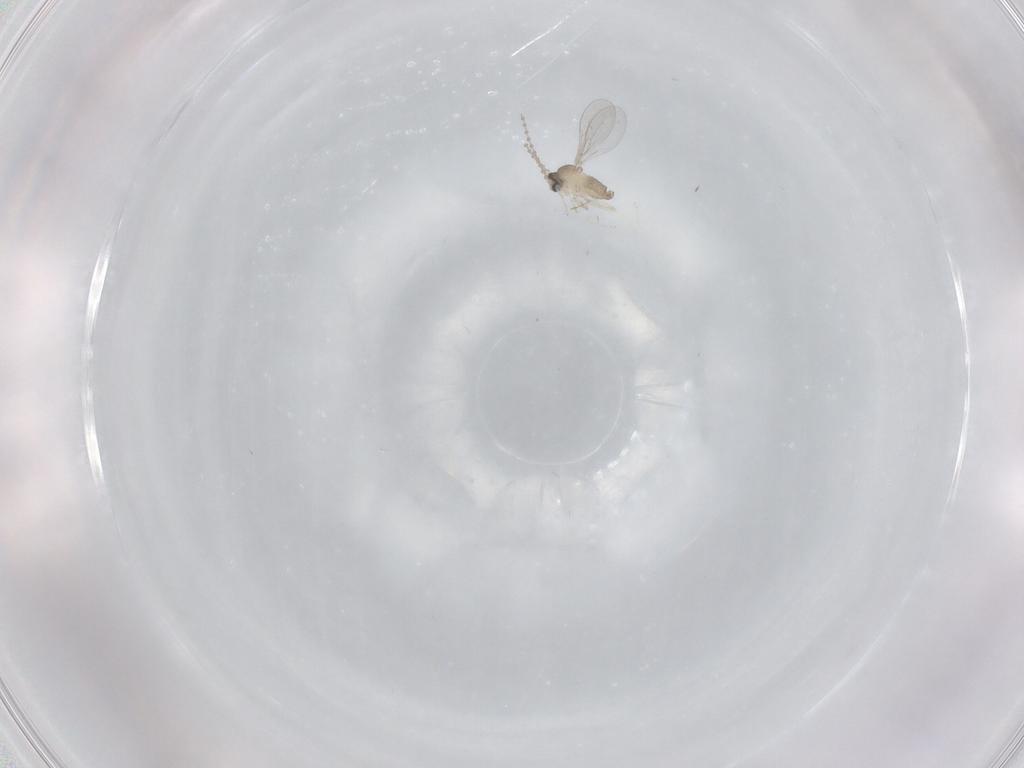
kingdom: Animalia
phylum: Arthropoda
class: Insecta
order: Diptera
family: Cecidomyiidae
